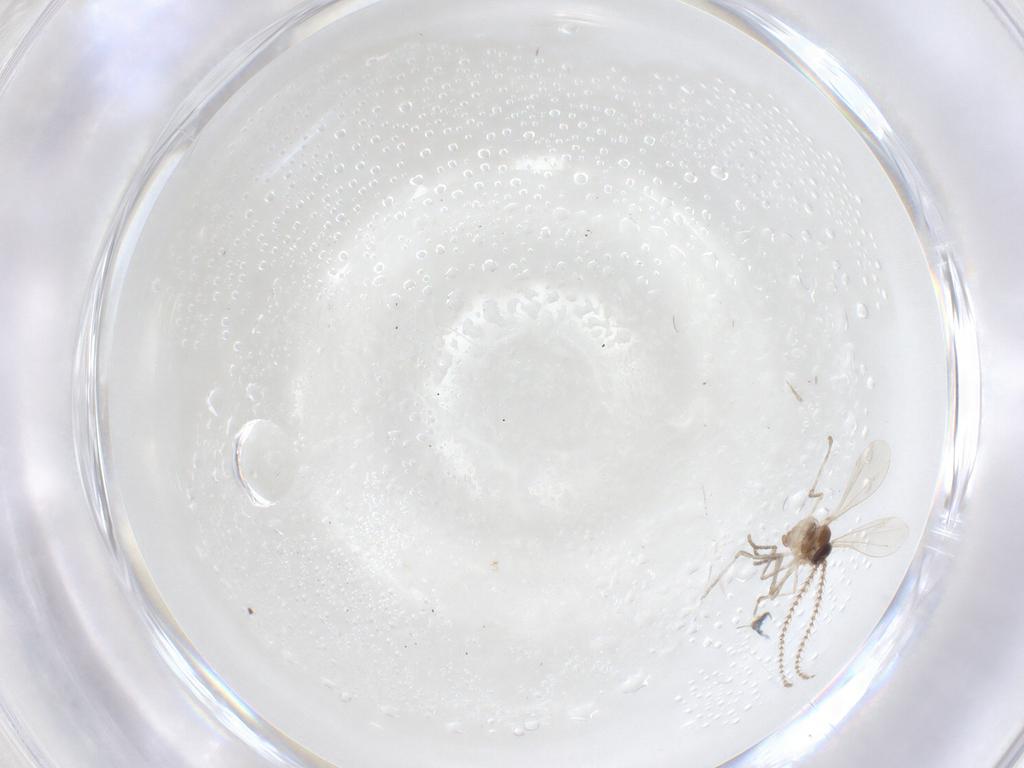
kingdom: Animalia
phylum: Arthropoda
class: Insecta
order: Diptera
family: Cecidomyiidae
